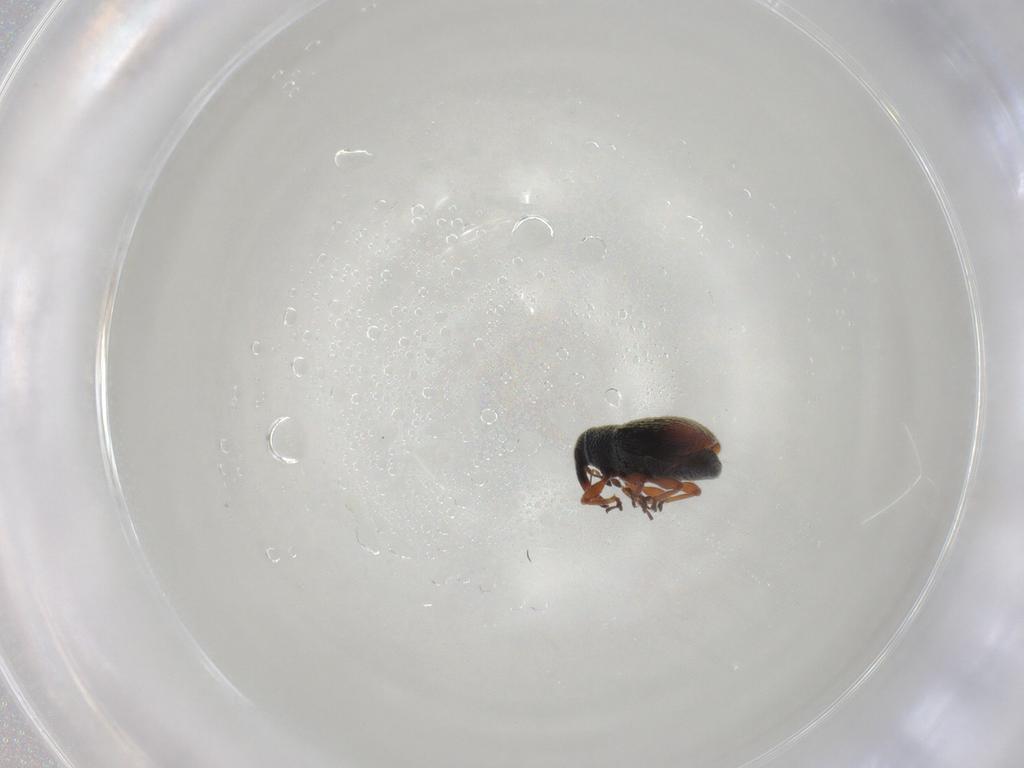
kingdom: Animalia
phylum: Arthropoda
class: Insecta
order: Coleoptera
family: Curculionidae
